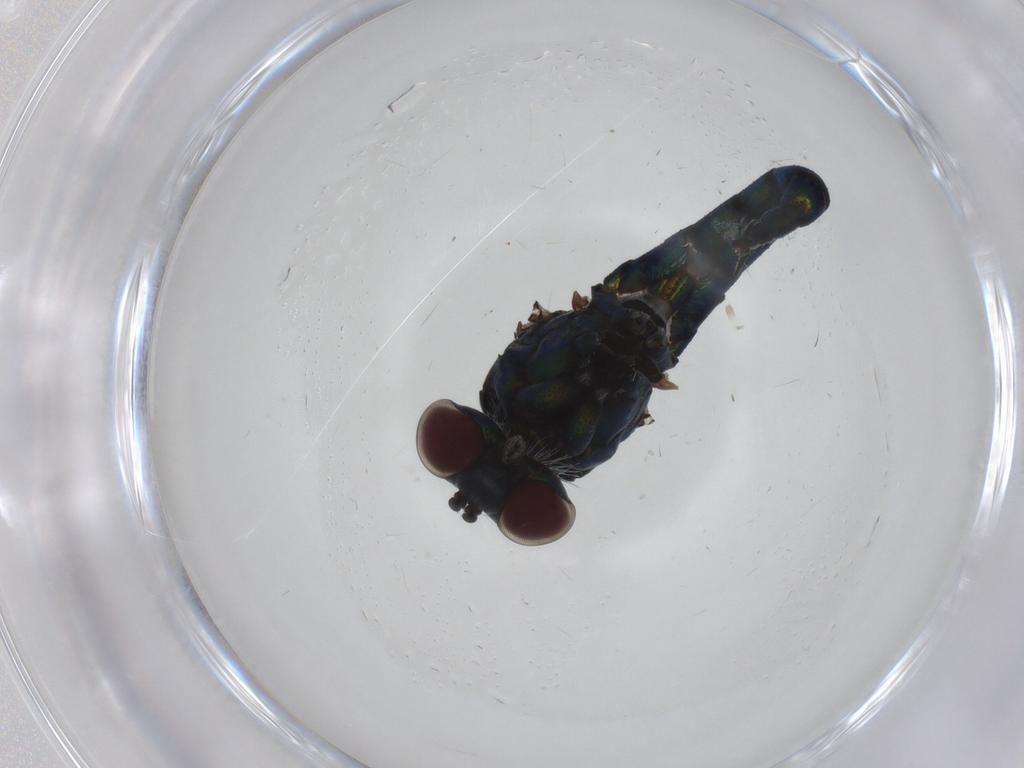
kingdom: Animalia
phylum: Arthropoda
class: Insecta
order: Diptera
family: Dolichopodidae
